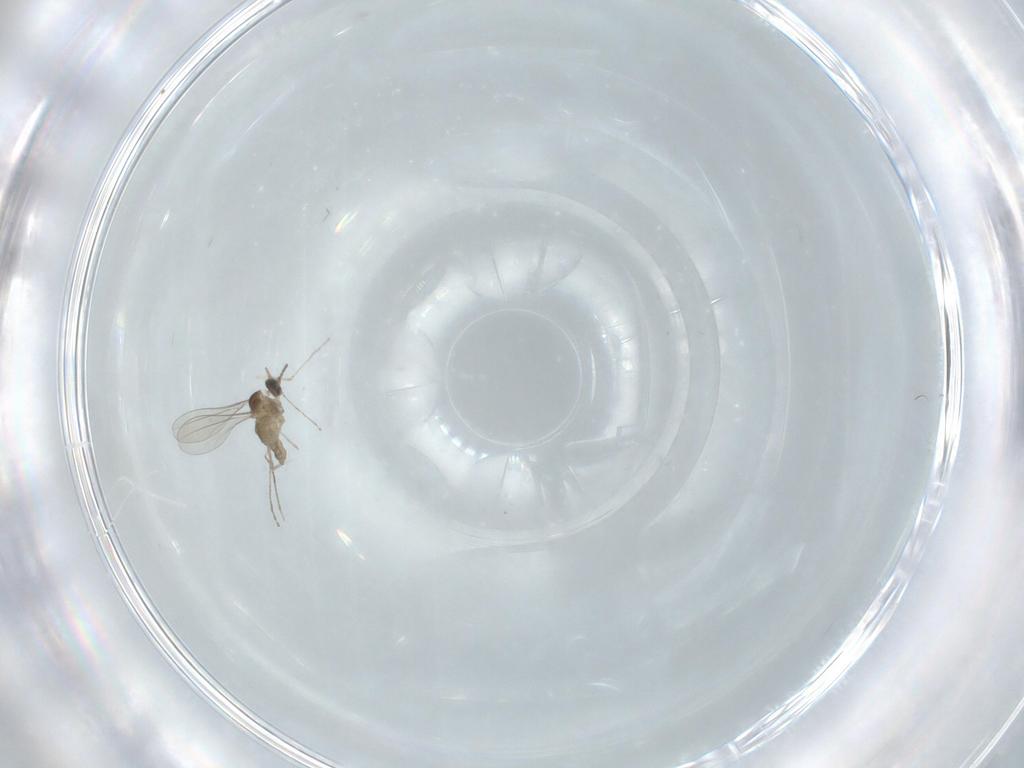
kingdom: Animalia
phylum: Arthropoda
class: Insecta
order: Diptera
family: Cecidomyiidae
